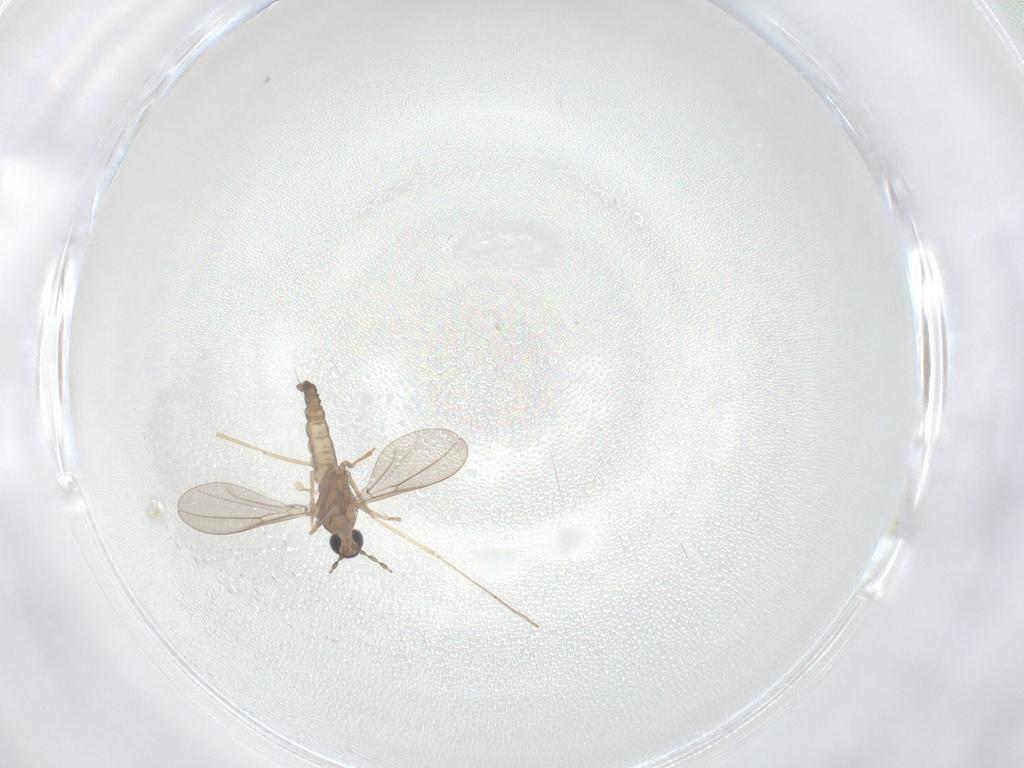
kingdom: Animalia
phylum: Arthropoda
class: Insecta
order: Diptera
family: Cecidomyiidae
